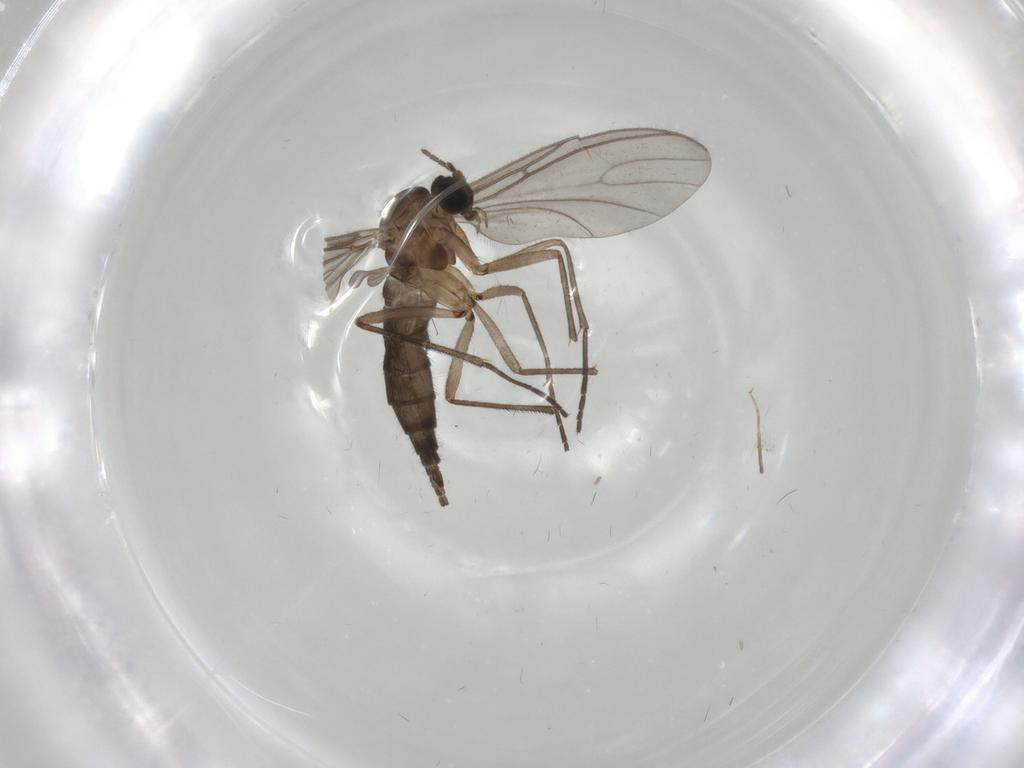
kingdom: Animalia
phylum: Arthropoda
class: Insecta
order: Diptera
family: Chironomidae
